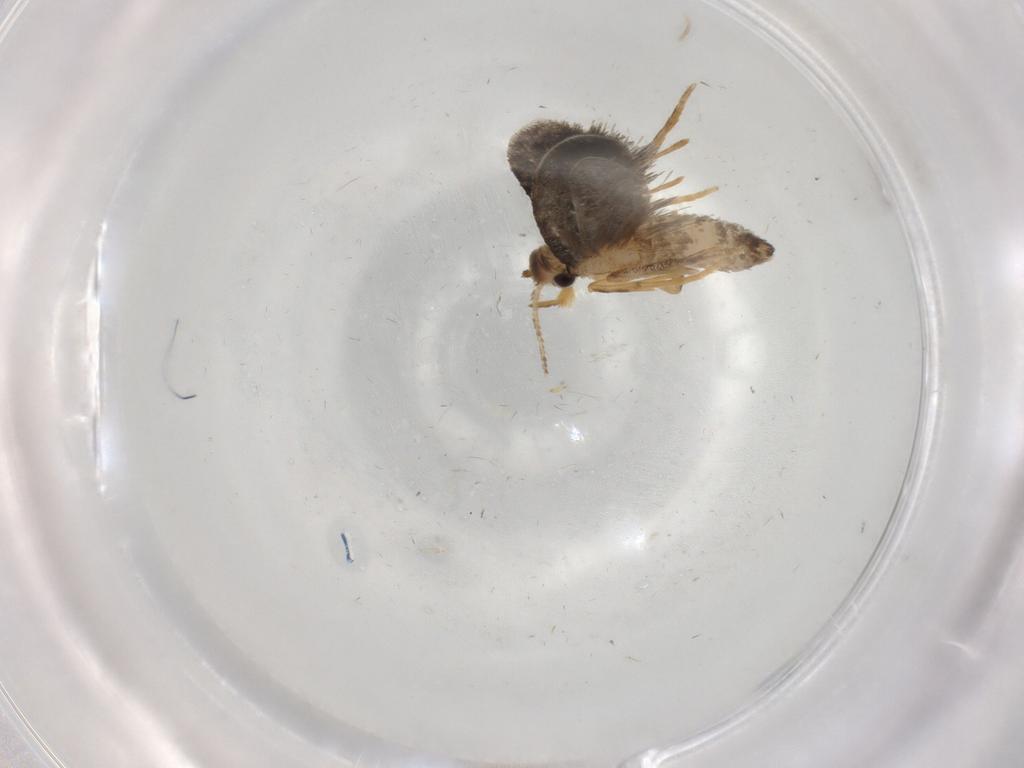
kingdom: Animalia
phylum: Arthropoda
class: Insecta
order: Lepidoptera
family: Psychidae
